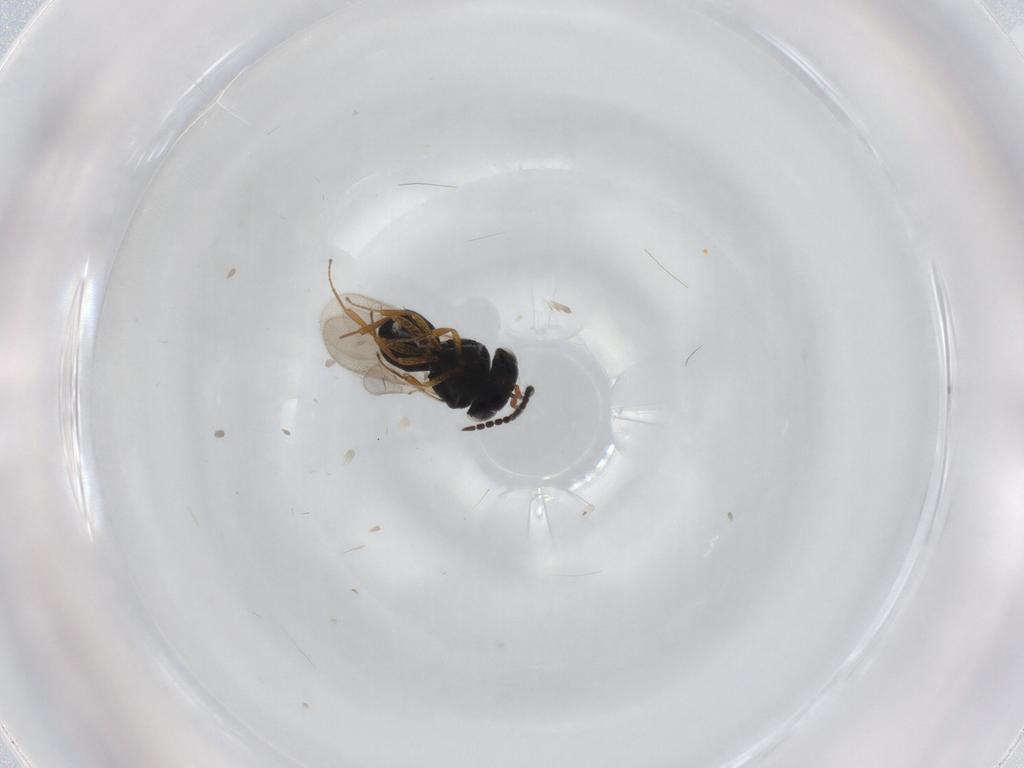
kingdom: Animalia
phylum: Arthropoda
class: Insecta
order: Hymenoptera
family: Scelionidae
